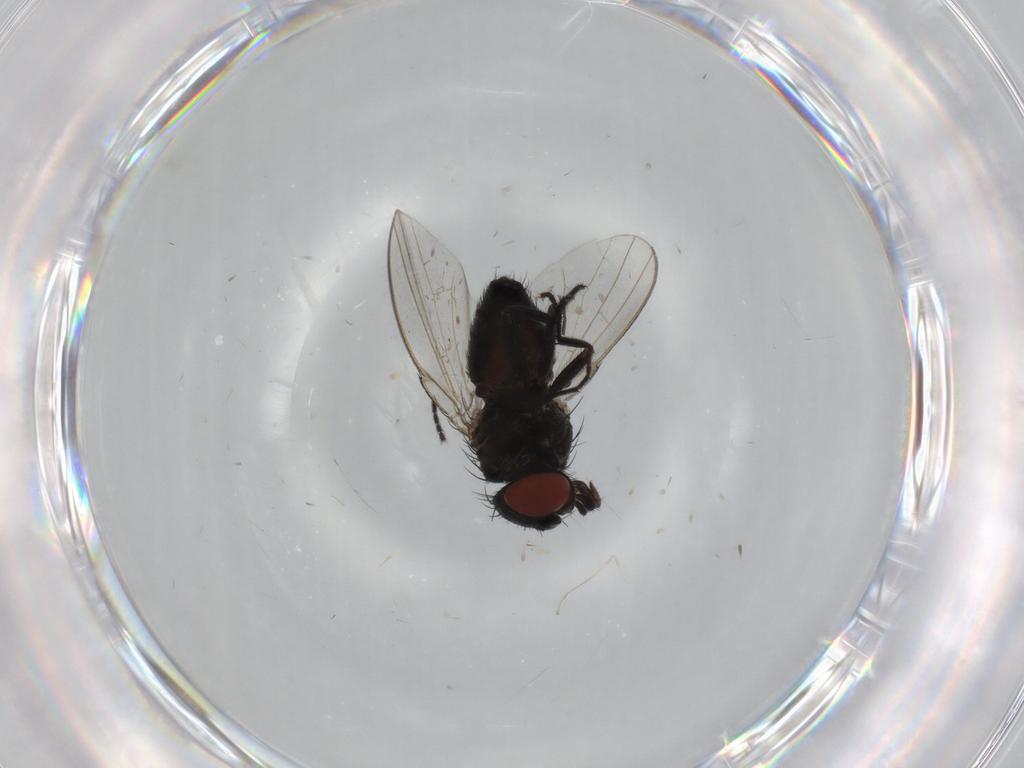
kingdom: Animalia
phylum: Arthropoda
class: Insecta
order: Diptera
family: Milichiidae
